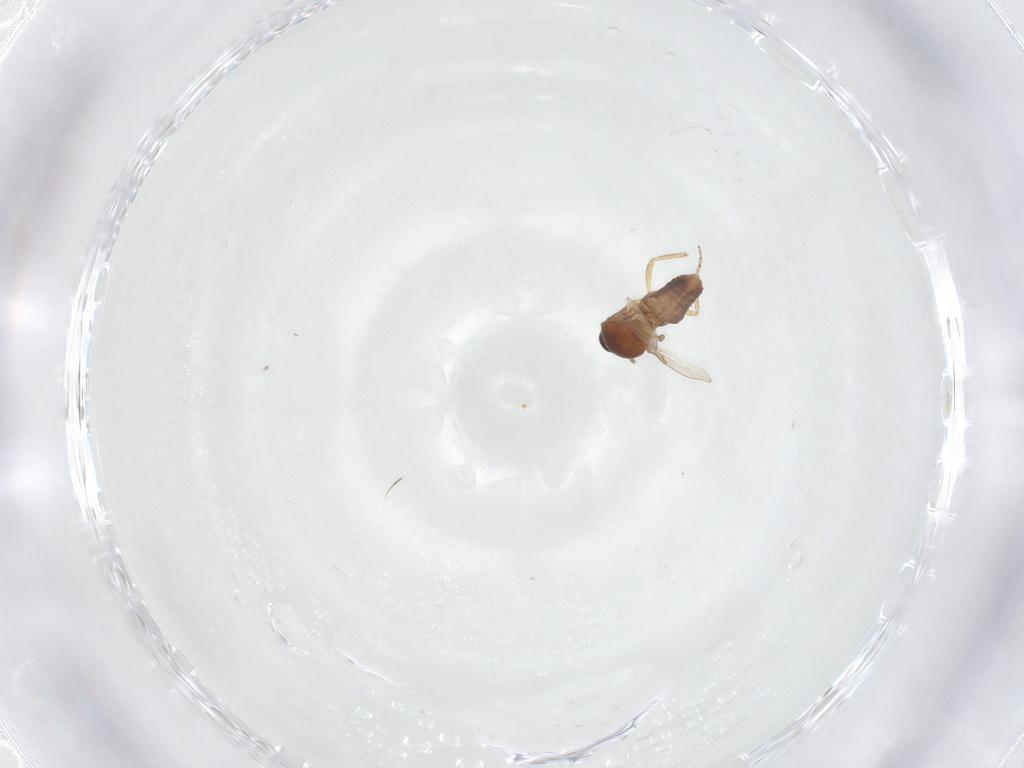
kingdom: Animalia
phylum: Arthropoda
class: Insecta
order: Diptera
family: Ceratopogonidae
